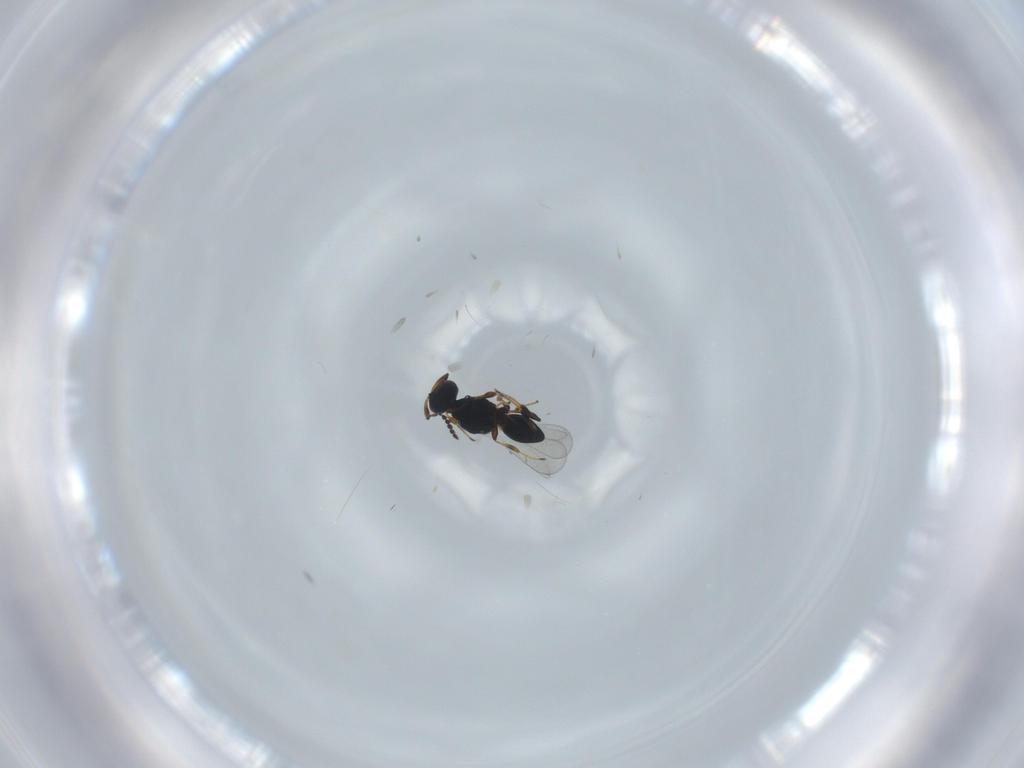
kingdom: Animalia
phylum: Arthropoda
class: Insecta
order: Hymenoptera
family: Platygastridae
